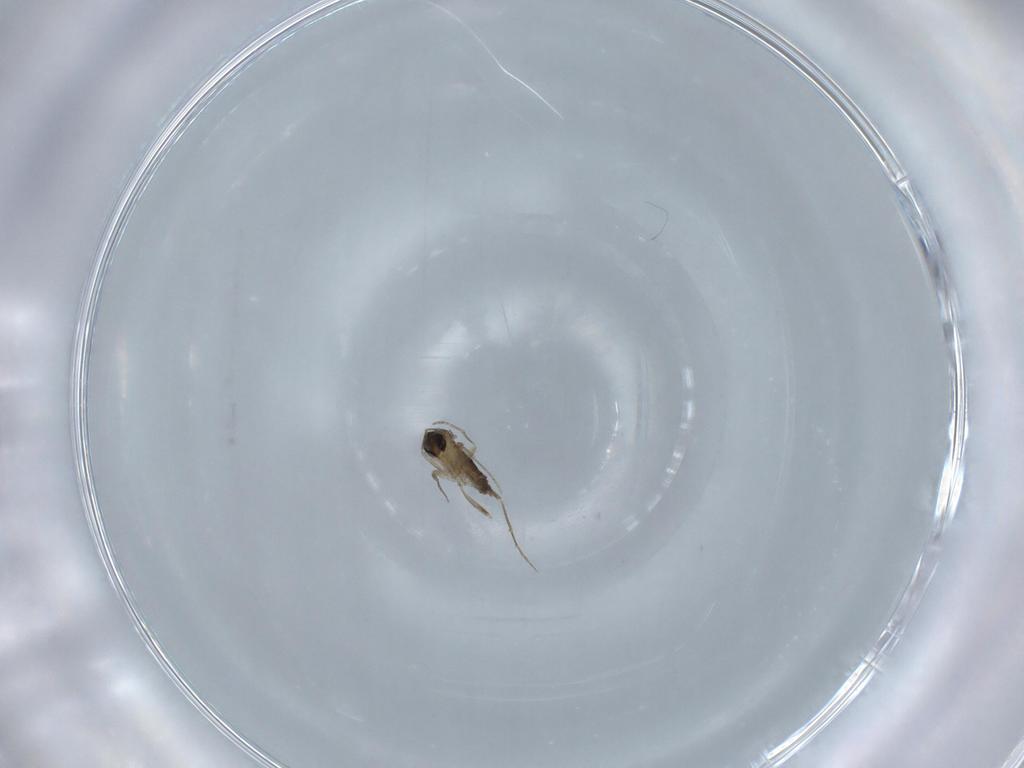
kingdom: Animalia
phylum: Arthropoda
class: Insecta
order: Diptera
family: Phoridae
